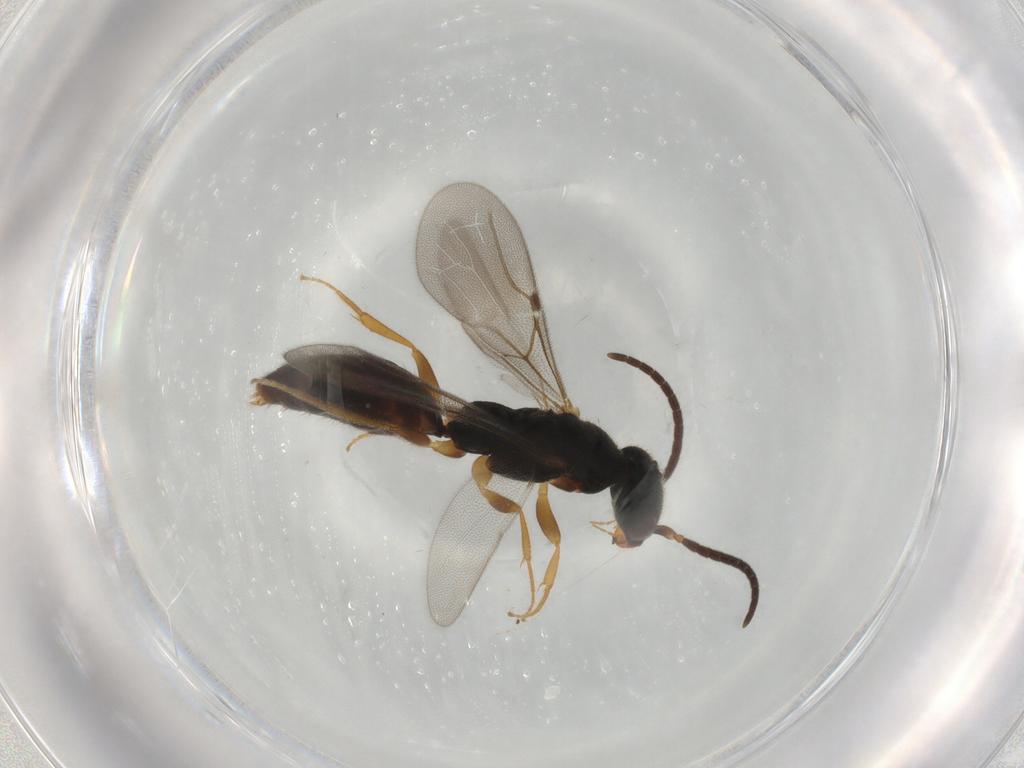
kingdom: Animalia
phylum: Arthropoda
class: Insecta
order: Hymenoptera
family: Bethylidae
